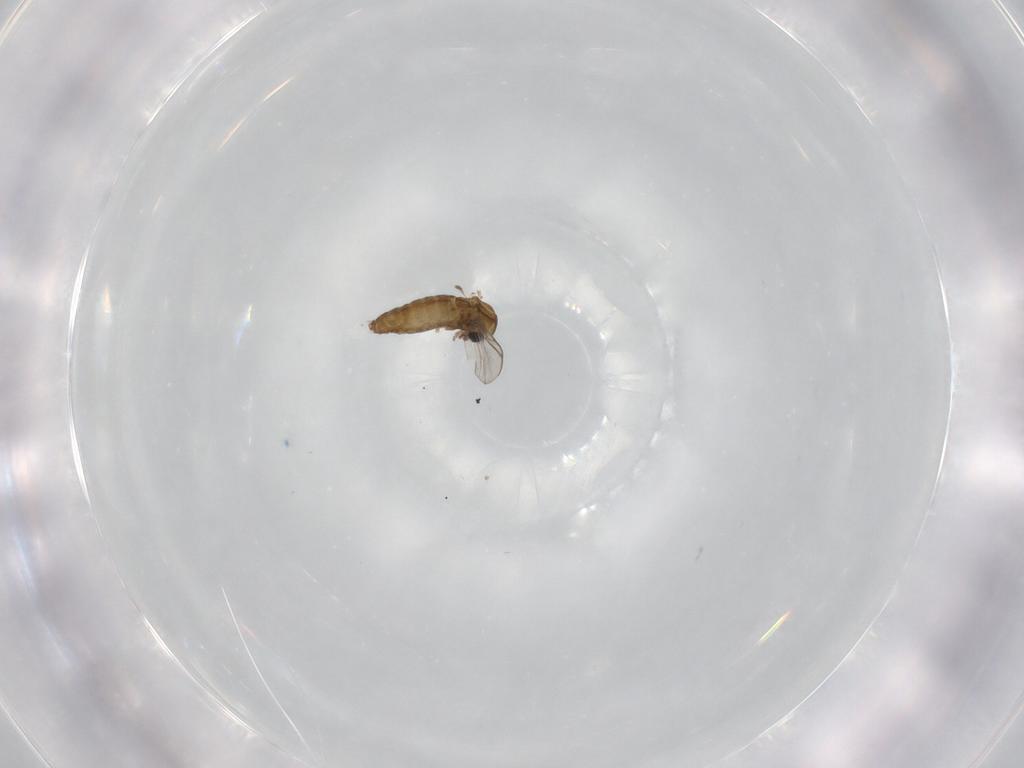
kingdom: Animalia
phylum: Arthropoda
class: Insecta
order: Diptera
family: Chironomidae
